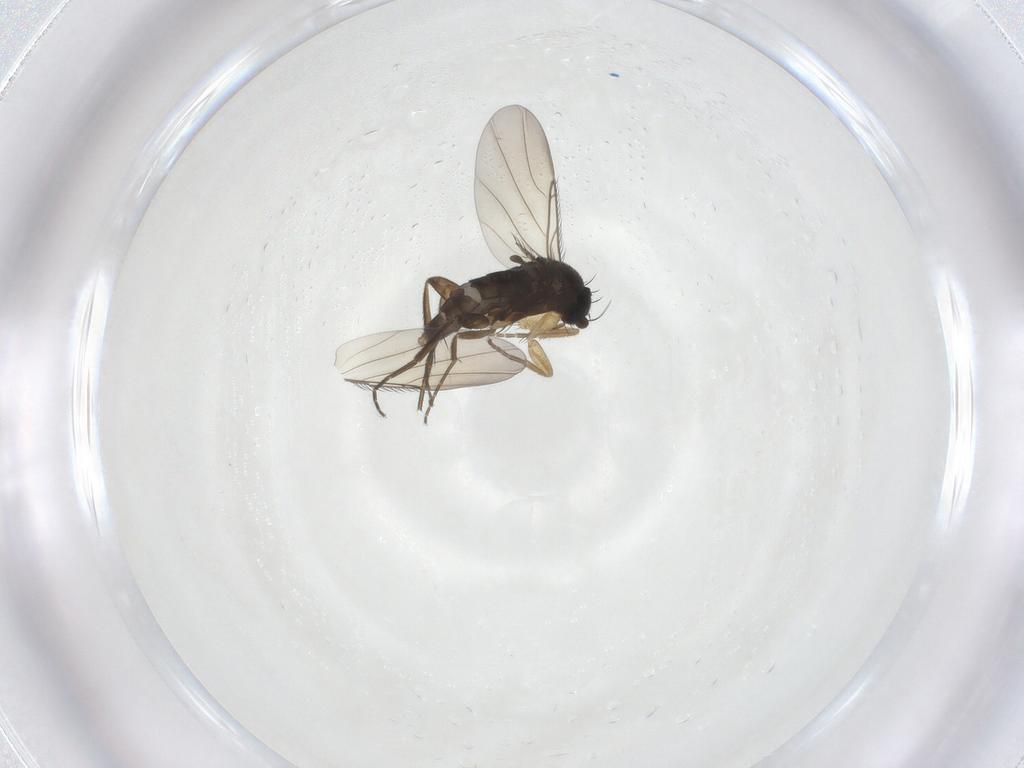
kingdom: Animalia
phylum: Arthropoda
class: Insecta
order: Diptera
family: Phoridae
